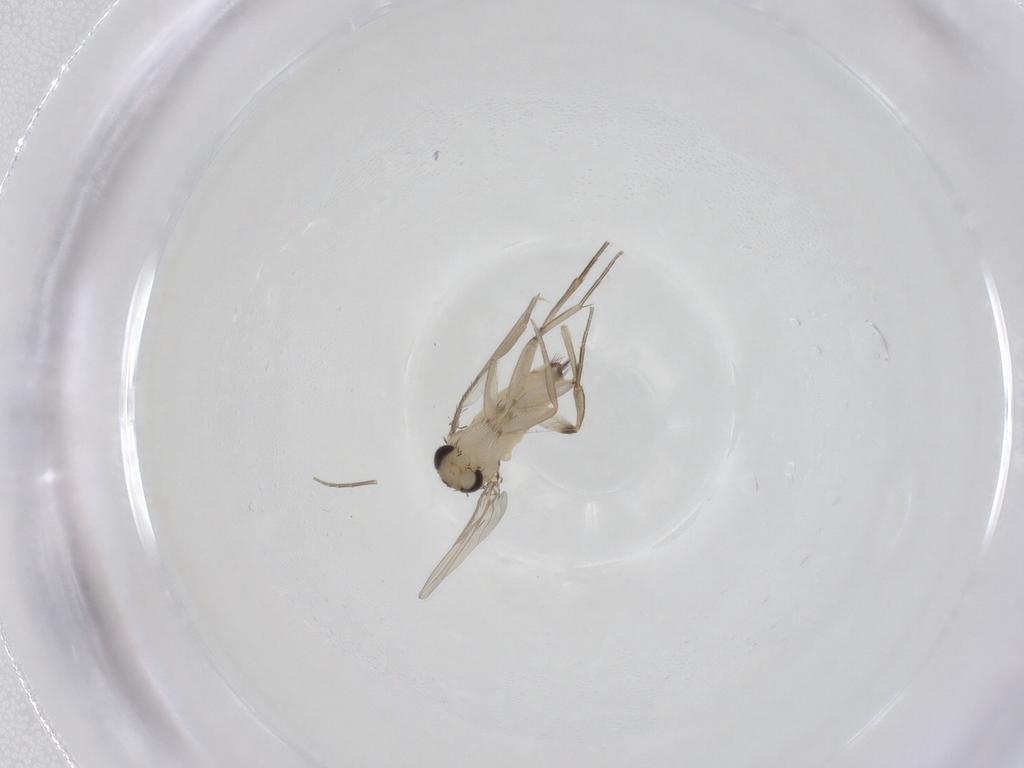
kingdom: Animalia
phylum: Arthropoda
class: Insecta
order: Diptera
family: Phoridae
